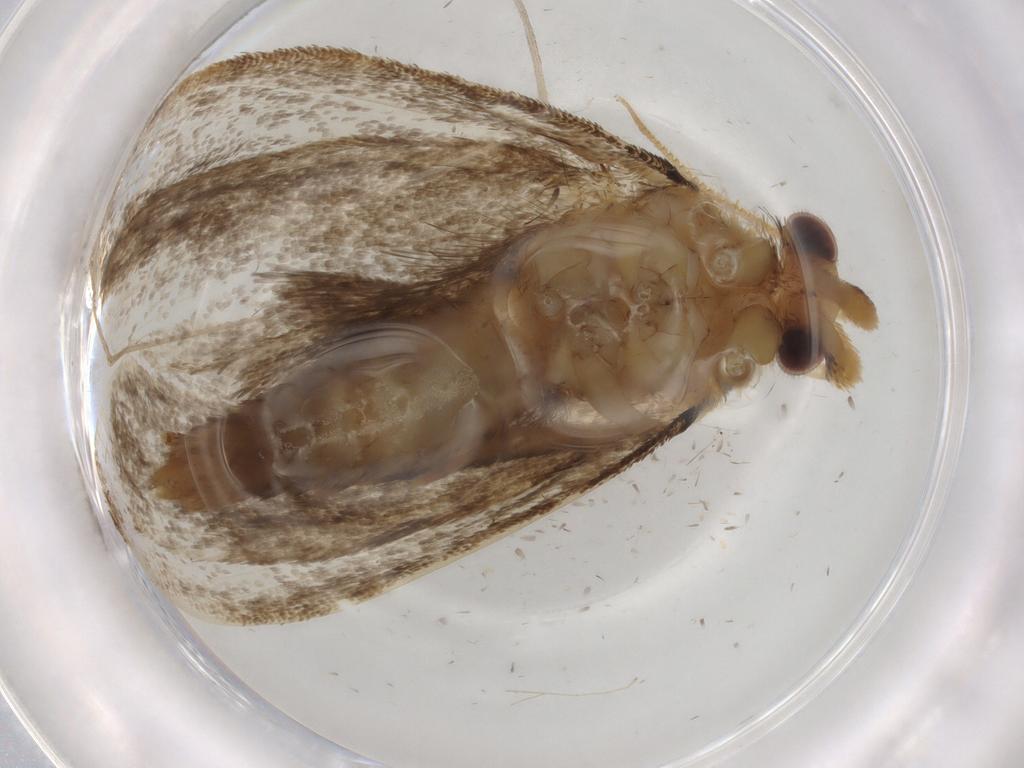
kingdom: Animalia
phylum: Arthropoda
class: Insecta
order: Lepidoptera
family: Tineidae
